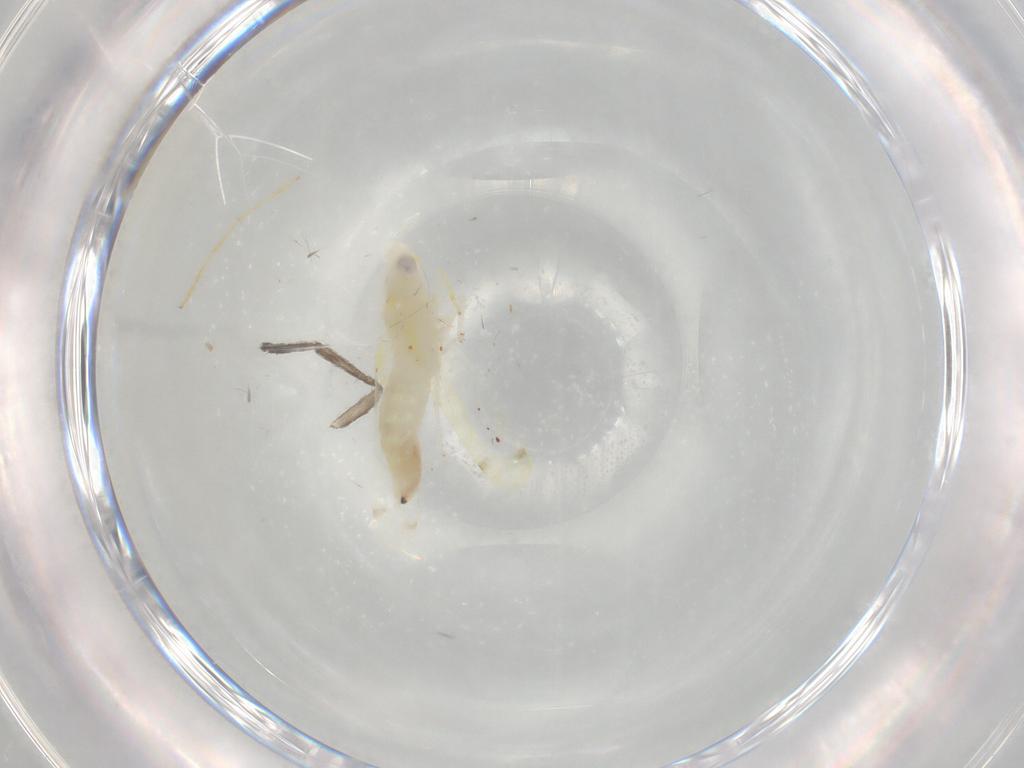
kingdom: Animalia
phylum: Arthropoda
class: Insecta
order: Hemiptera
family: Cicadellidae
